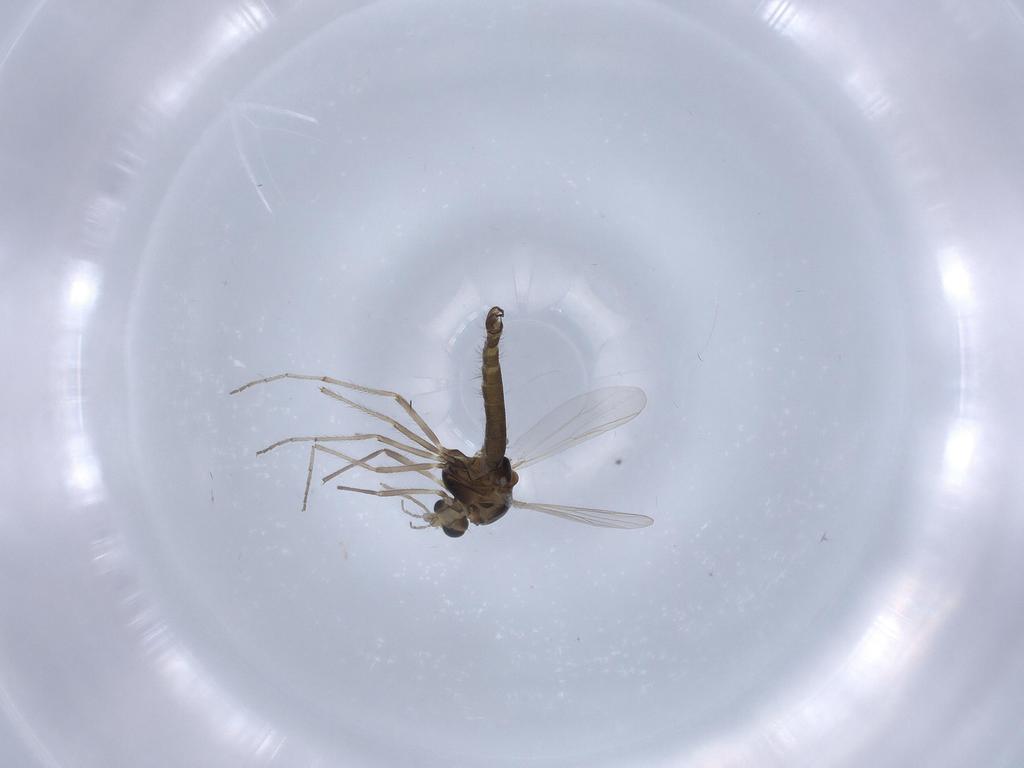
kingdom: Animalia
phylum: Arthropoda
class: Insecta
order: Diptera
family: Chironomidae
